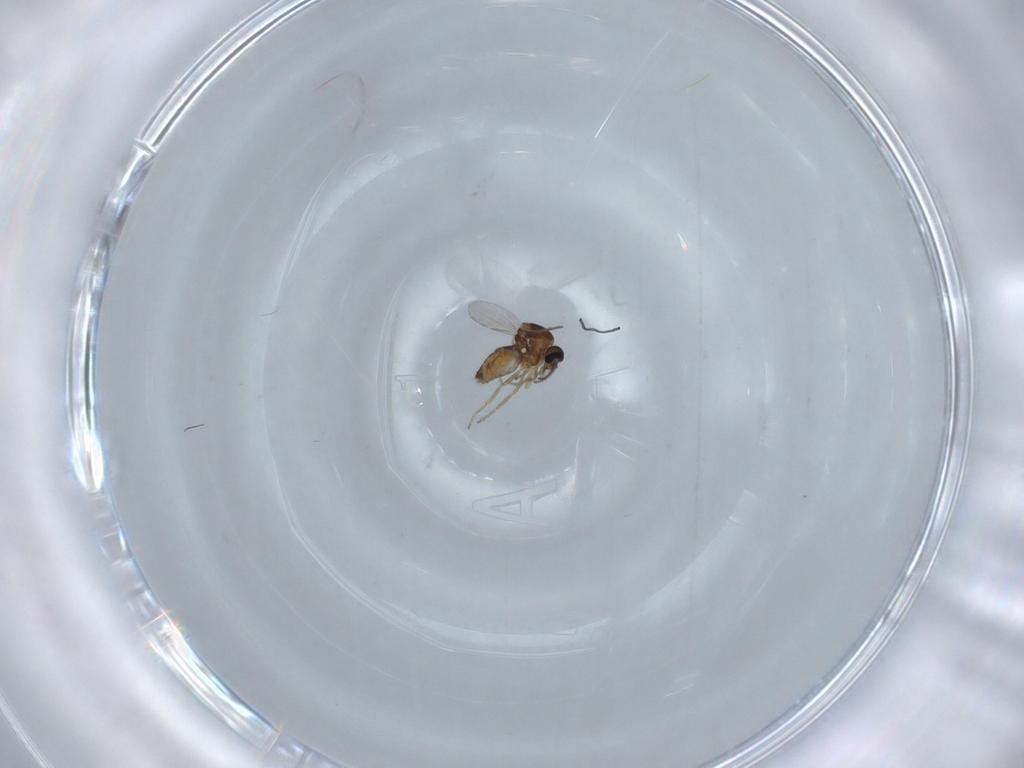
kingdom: Animalia
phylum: Arthropoda
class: Insecta
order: Diptera
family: Ceratopogonidae
